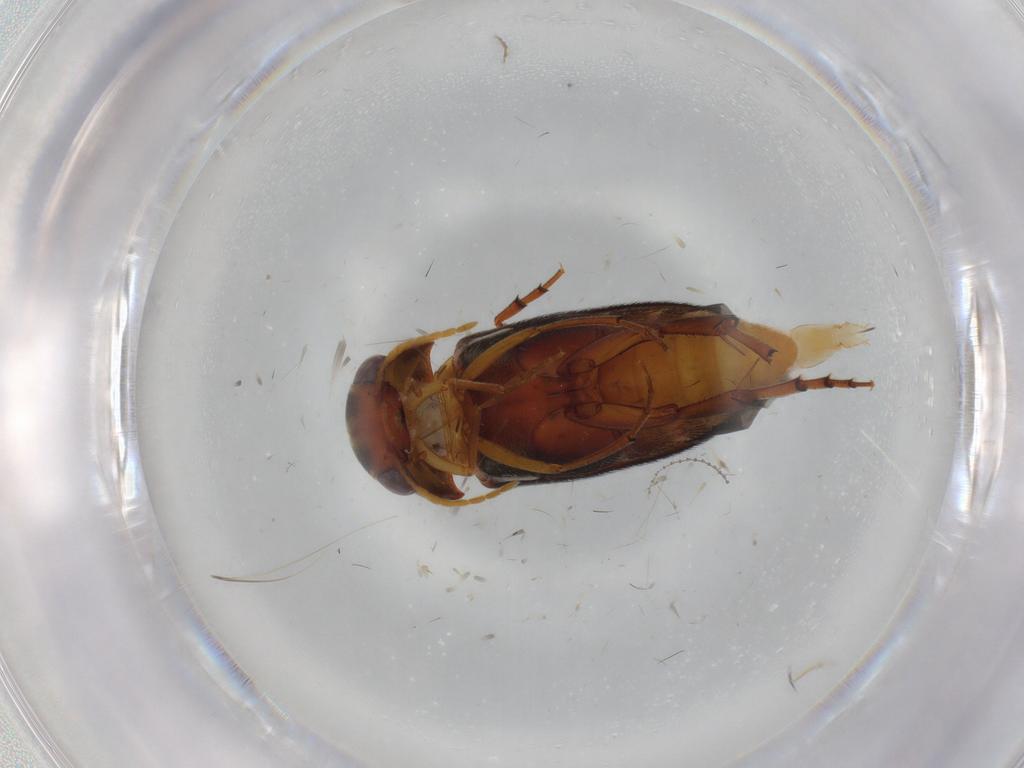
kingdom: Animalia
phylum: Arthropoda
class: Insecta
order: Coleoptera
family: Mordellidae
